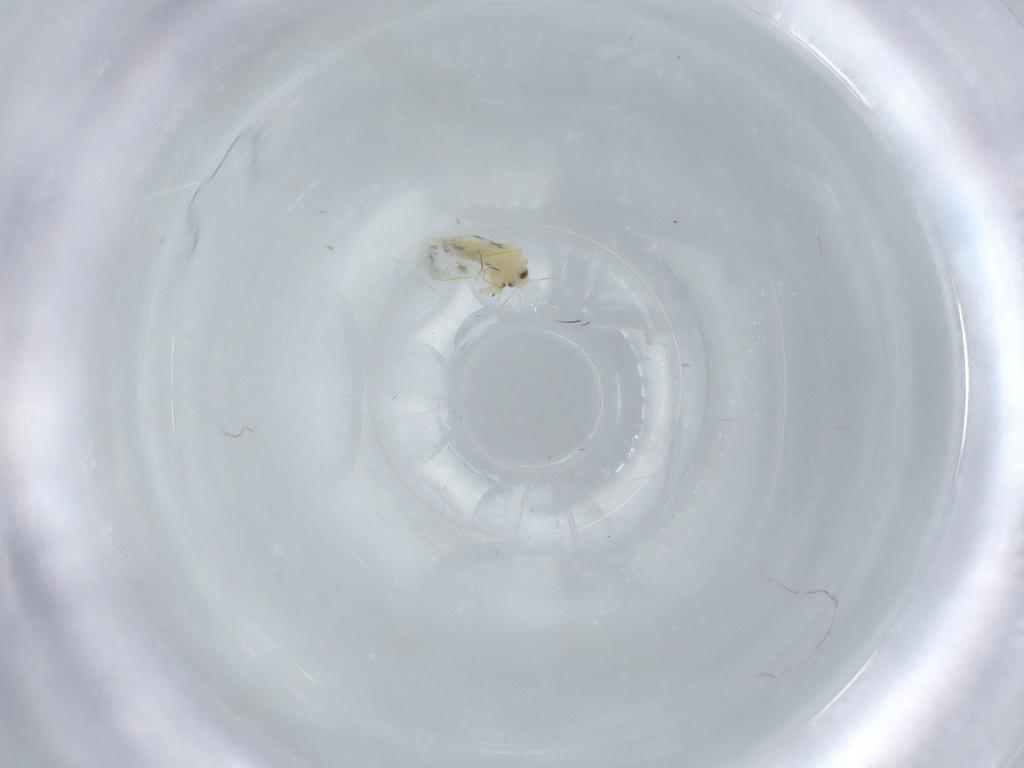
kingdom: Animalia
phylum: Arthropoda
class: Insecta
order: Hemiptera
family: Aleyrodidae
